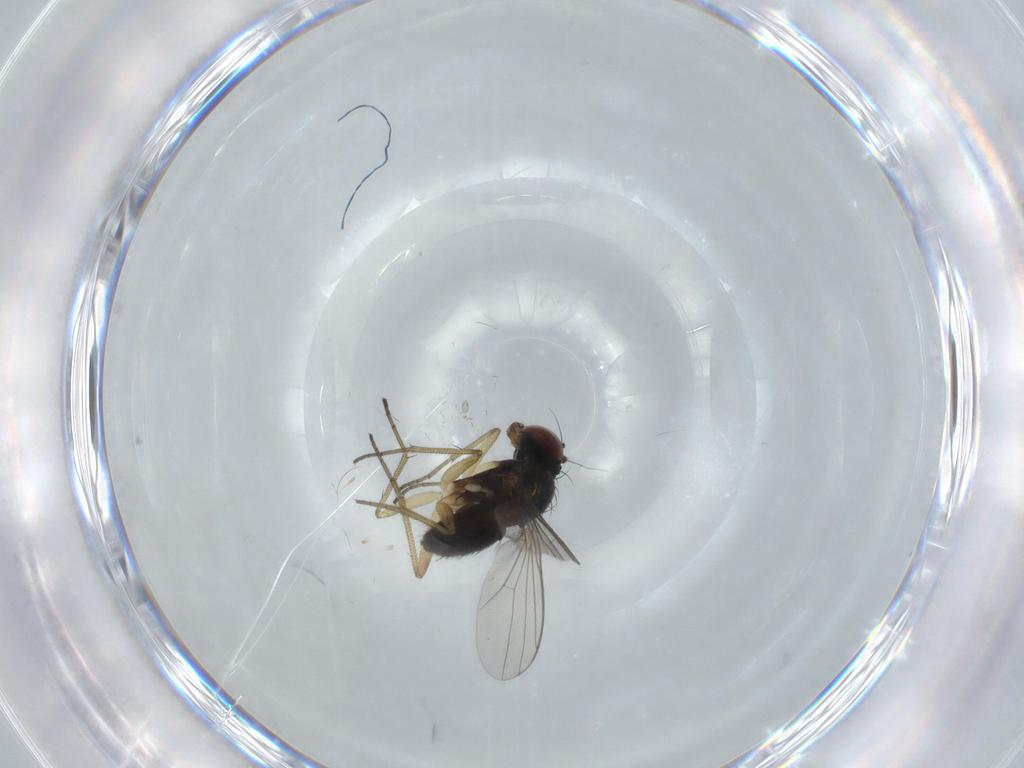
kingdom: Animalia
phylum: Arthropoda
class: Insecta
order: Diptera
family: Dolichopodidae
